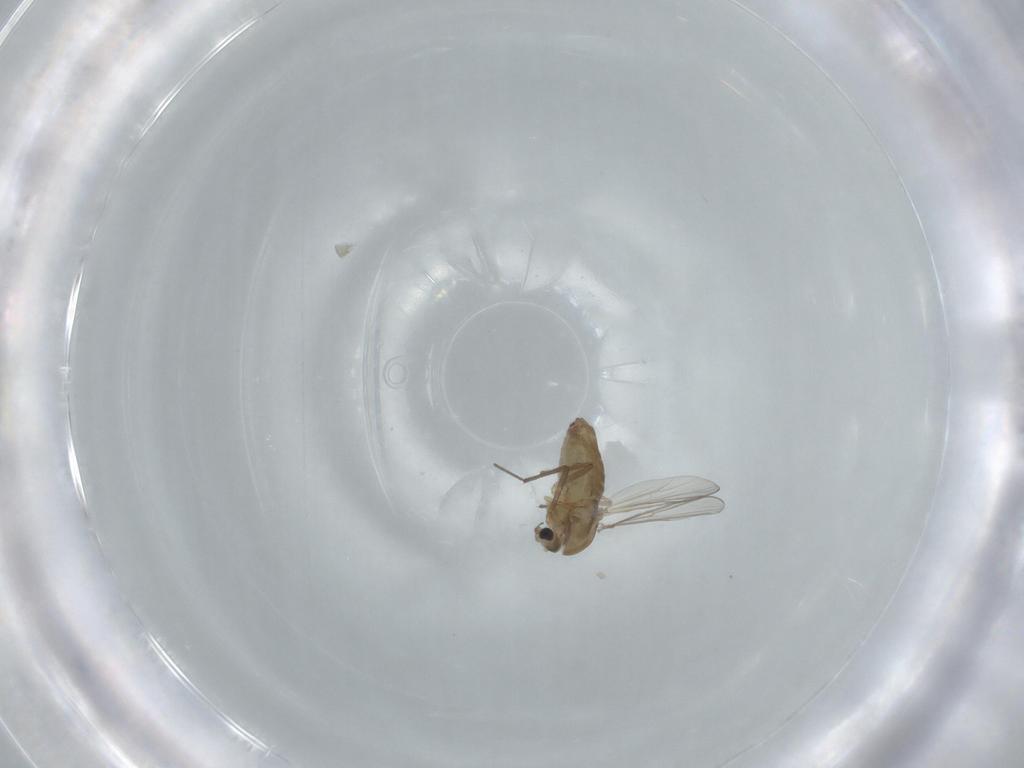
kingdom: Animalia
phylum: Arthropoda
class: Insecta
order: Diptera
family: Chironomidae
